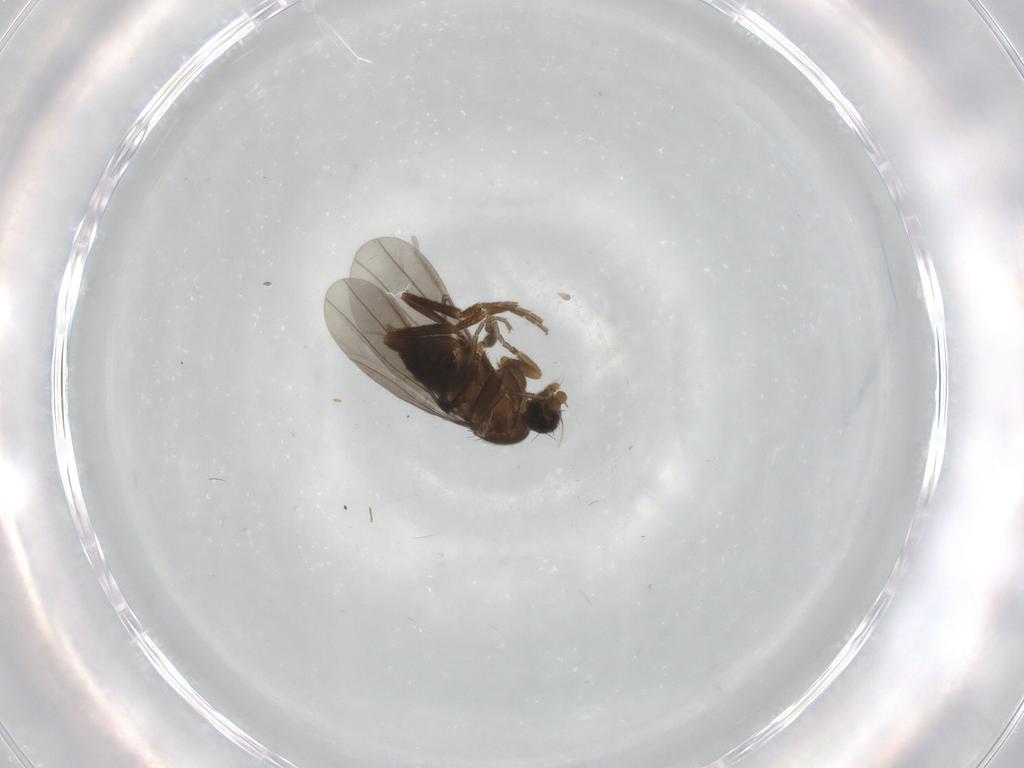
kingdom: Animalia
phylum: Arthropoda
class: Insecta
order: Diptera
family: Phoridae
